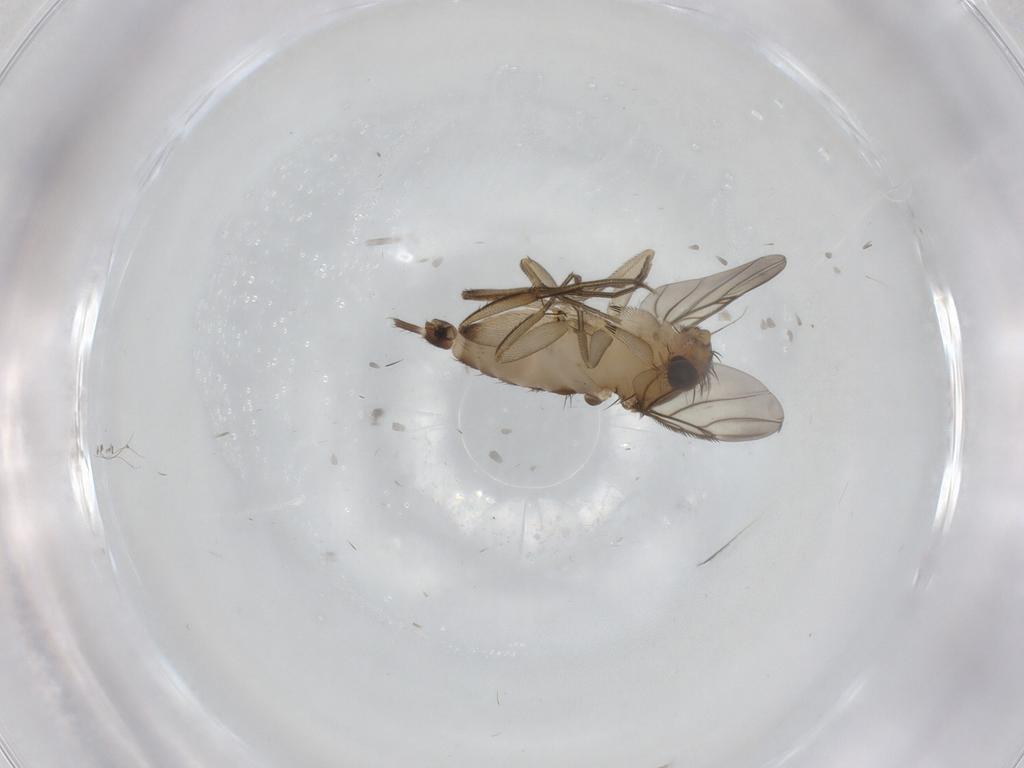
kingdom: Animalia
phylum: Arthropoda
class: Insecta
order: Diptera
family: Phoridae
